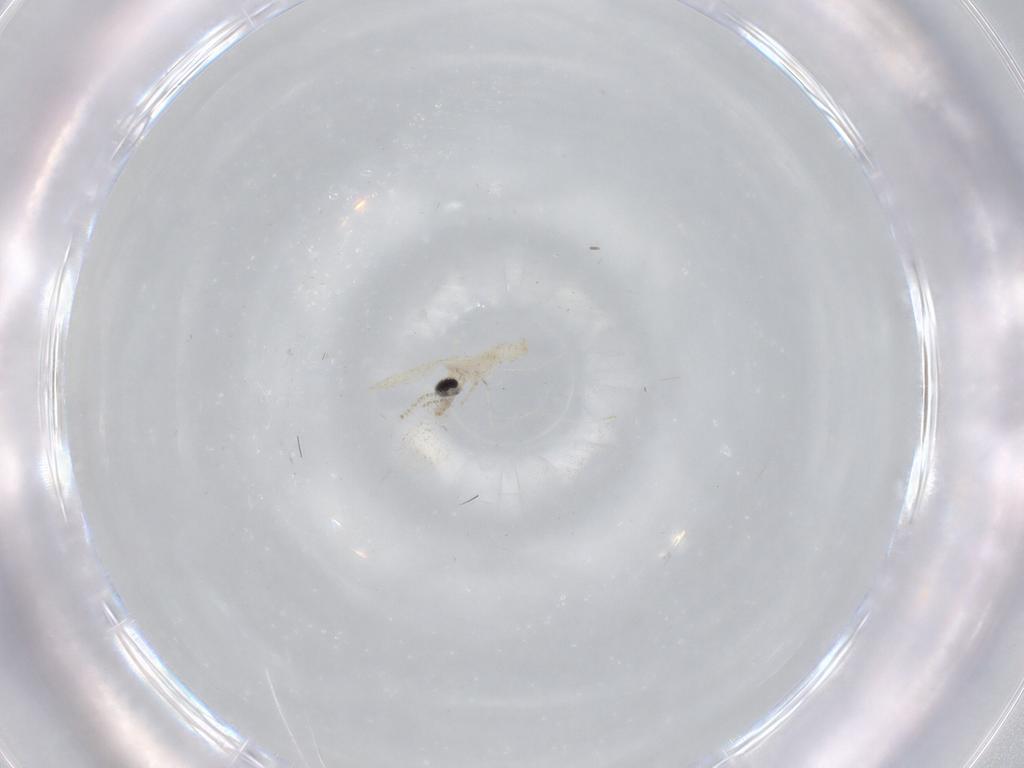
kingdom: Animalia
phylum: Arthropoda
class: Insecta
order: Diptera
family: Cecidomyiidae
